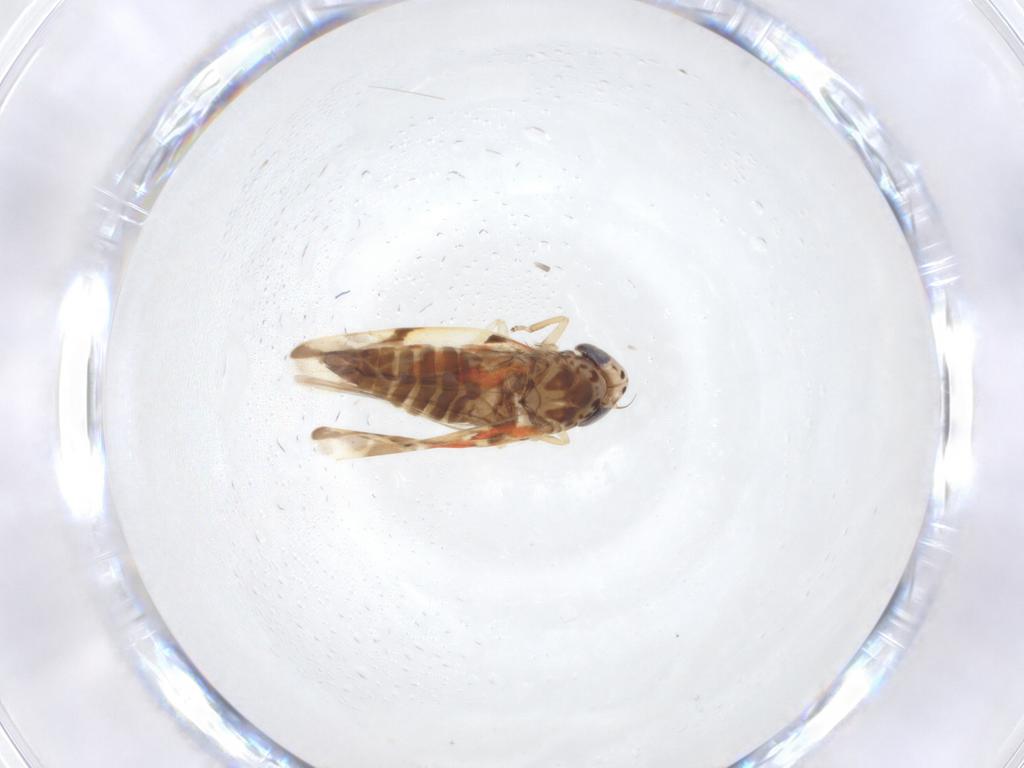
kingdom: Animalia
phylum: Arthropoda
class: Insecta
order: Hemiptera
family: Cicadellidae
